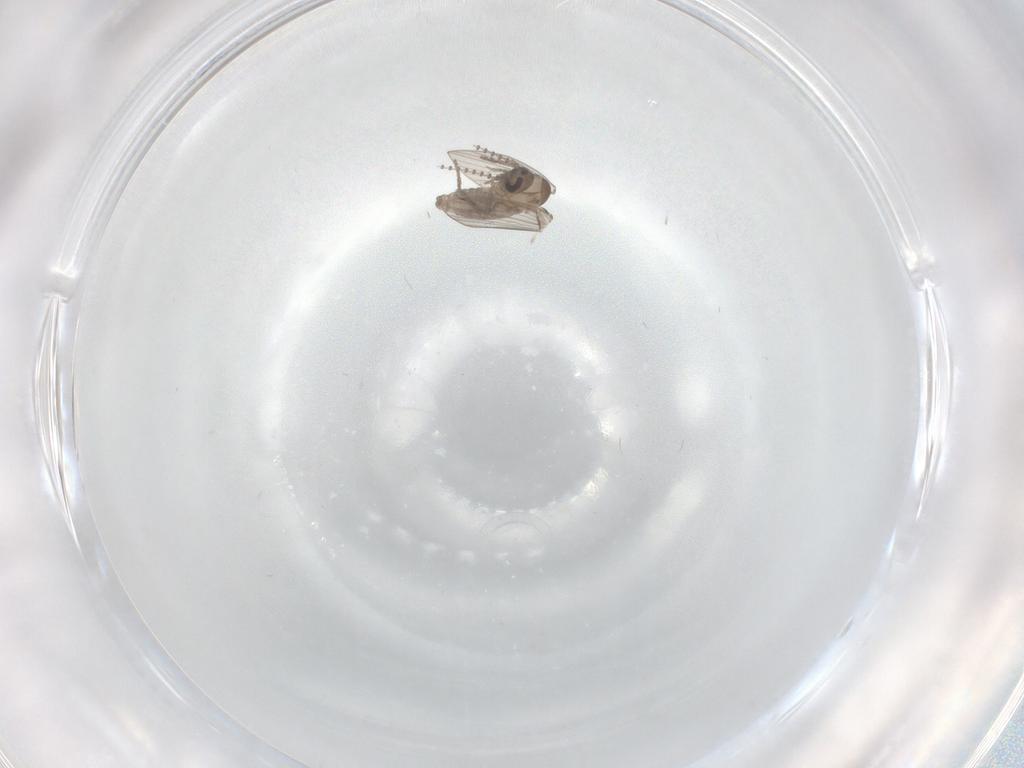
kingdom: Animalia
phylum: Arthropoda
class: Insecta
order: Diptera
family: Cecidomyiidae
